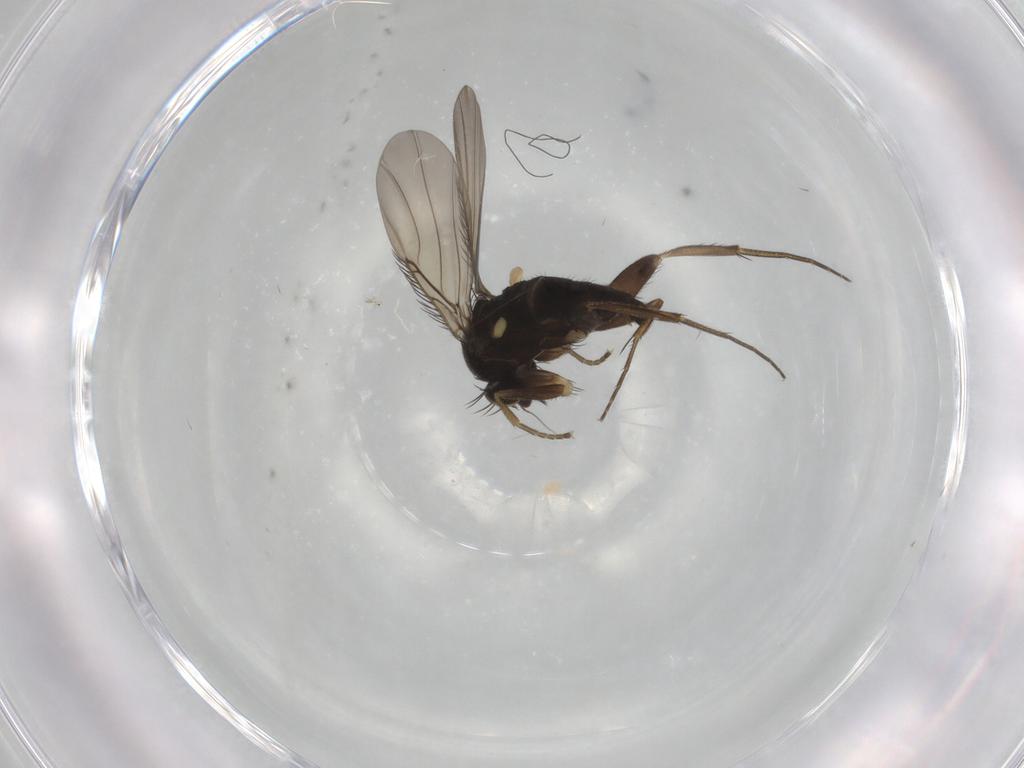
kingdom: Animalia
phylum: Arthropoda
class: Insecta
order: Diptera
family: Phoridae
